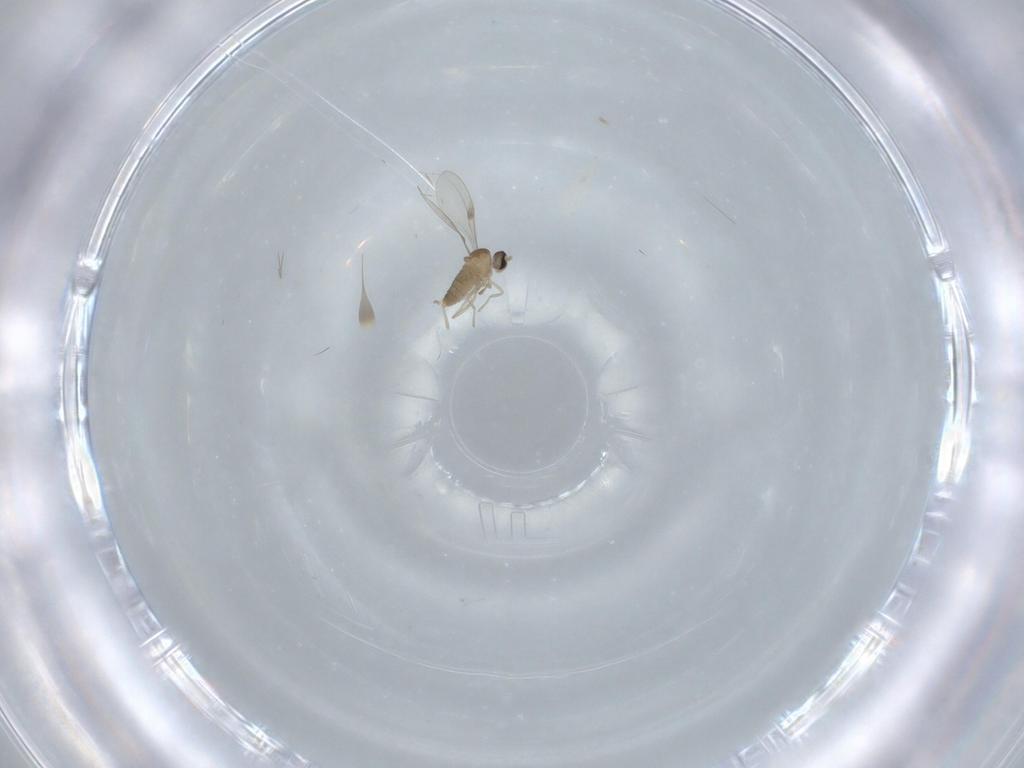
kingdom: Animalia
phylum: Arthropoda
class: Insecta
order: Diptera
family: Cecidomyiidae
